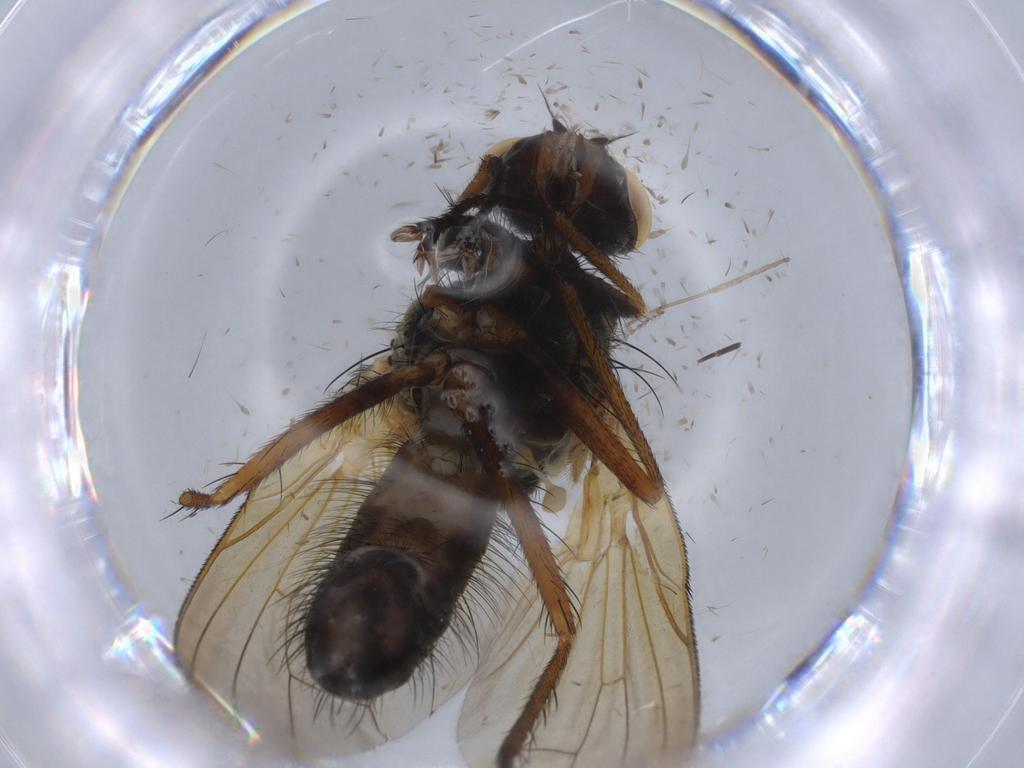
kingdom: Animalia
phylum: Arthropoda
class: Insecta
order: Diptera
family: Anthomyiidae
